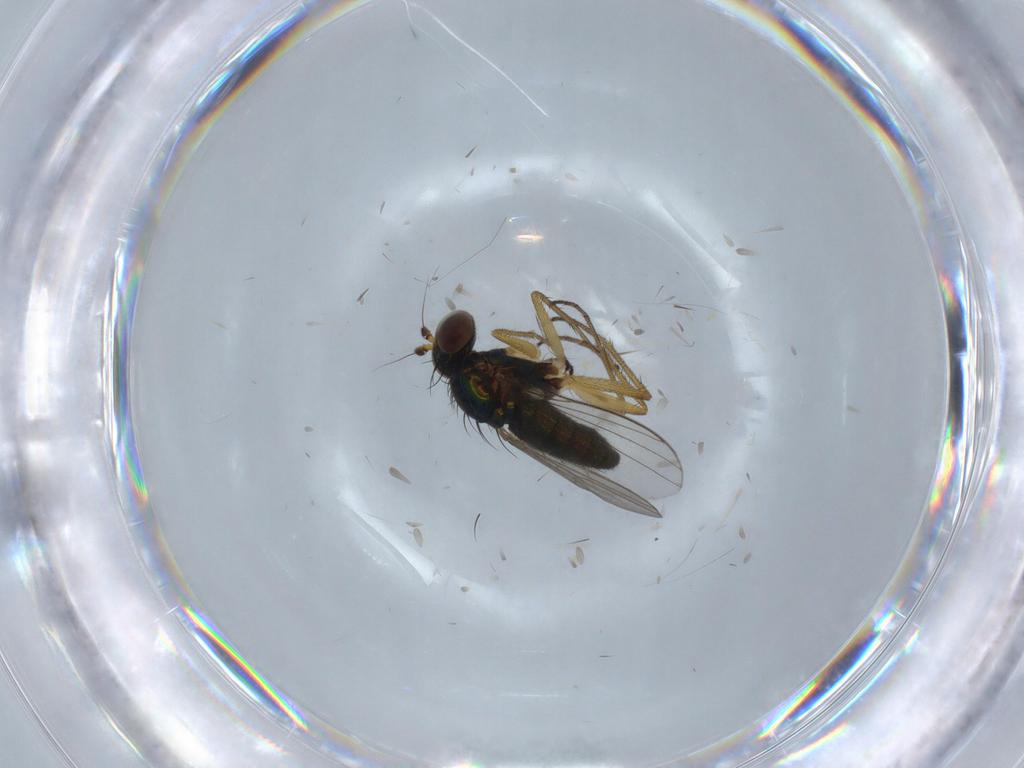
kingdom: Animalia
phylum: Arthropoda
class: Insecta
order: Diptera
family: Dolichopodidae
